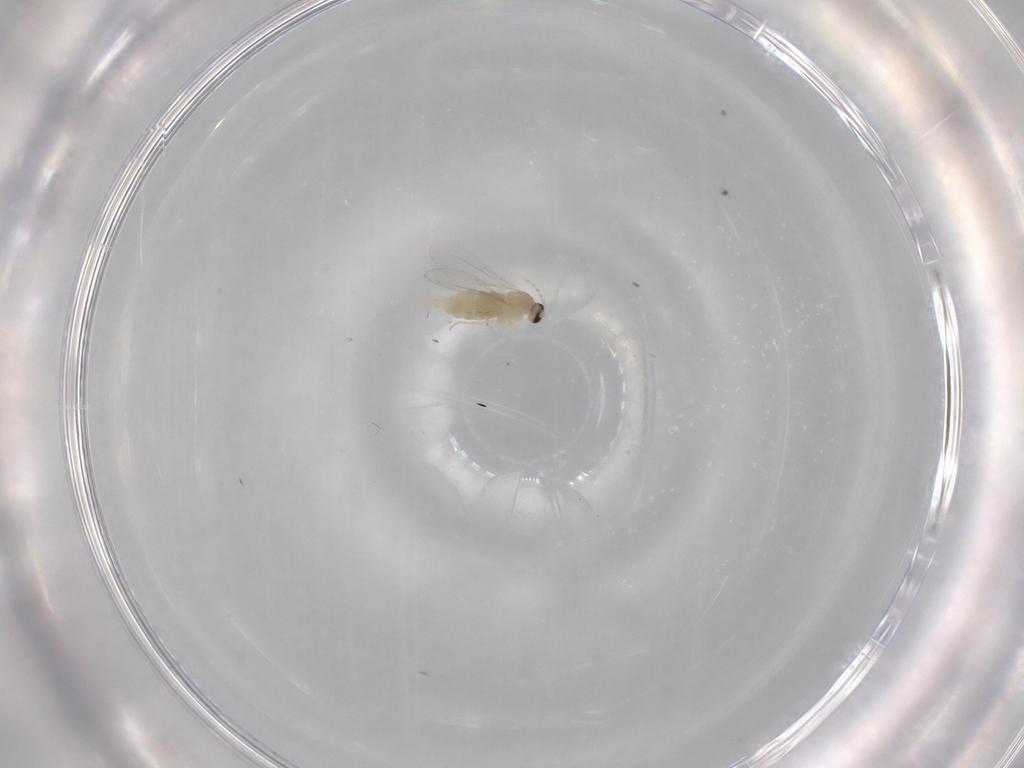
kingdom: Animalia
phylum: Arthropoda
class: Insecta
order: Diptera
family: Cecidomyiidae
